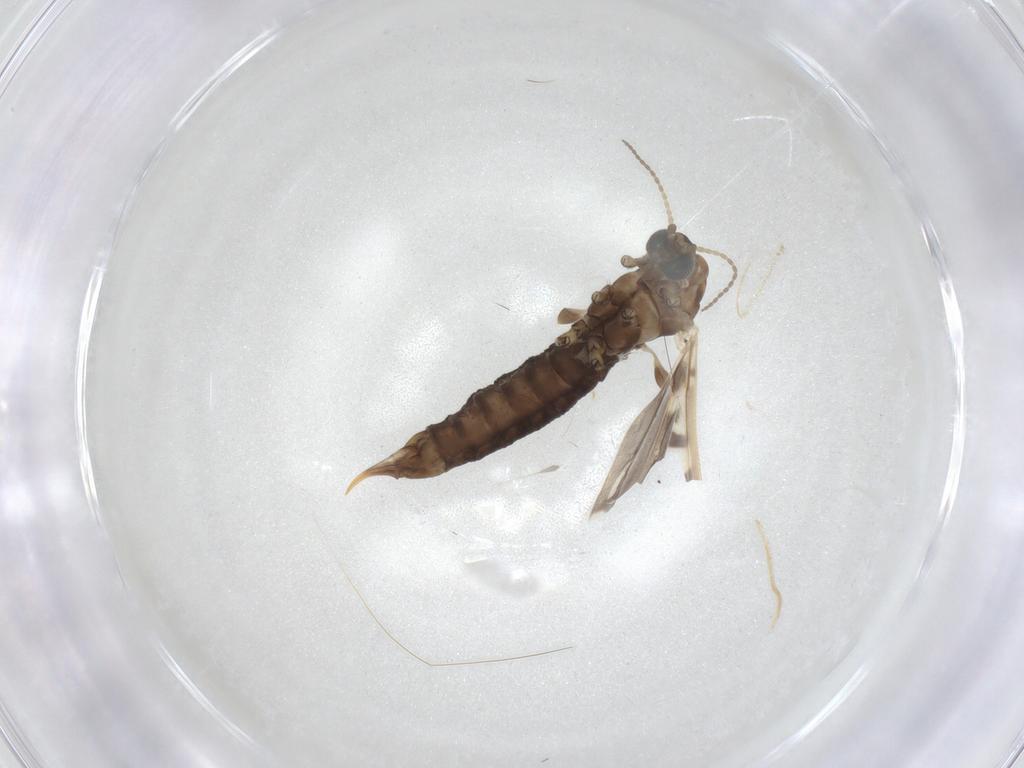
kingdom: Animalia
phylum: Arthropoda
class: Insecta
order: Diptera
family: Limoniidae
